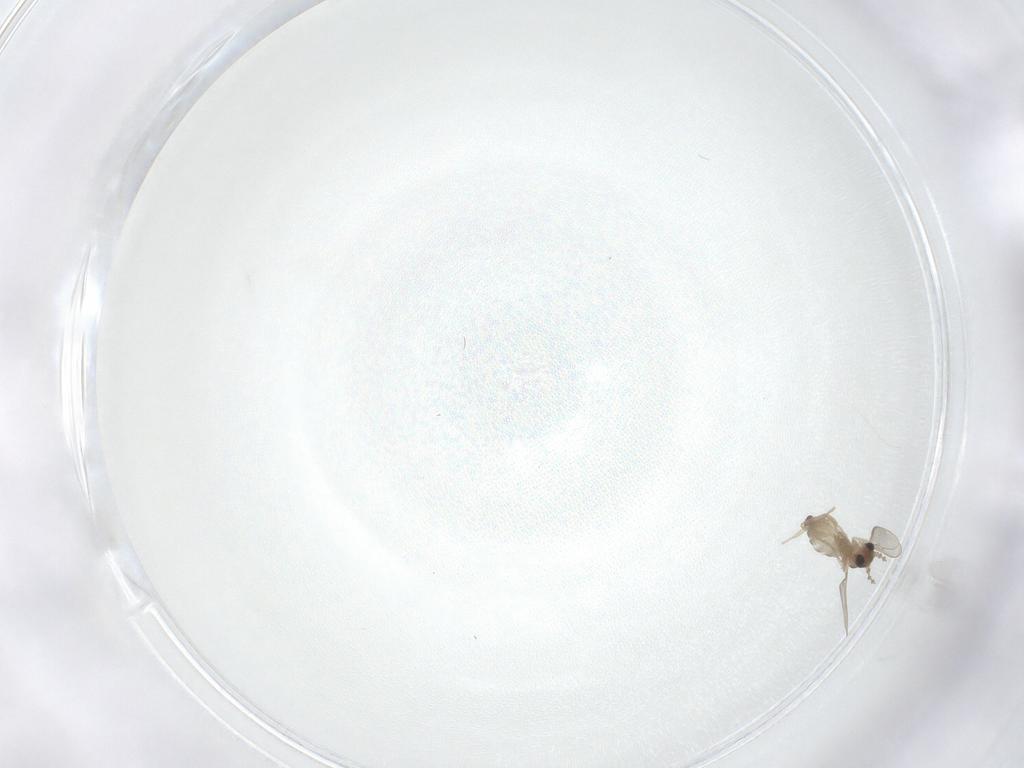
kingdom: Animalia
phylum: Arthropoda
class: Insecta
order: Diptera
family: Cecidomyiidae
